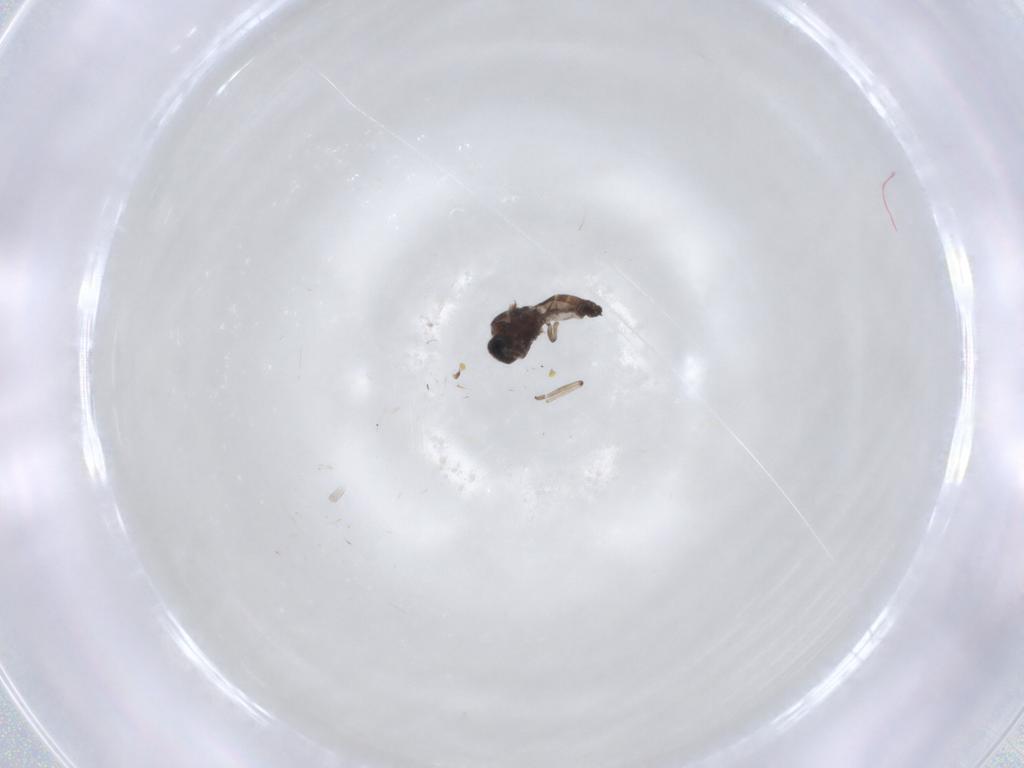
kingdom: Animalia
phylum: Arthropoda
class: Insecta
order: Diptera
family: Ceratopogonidae
